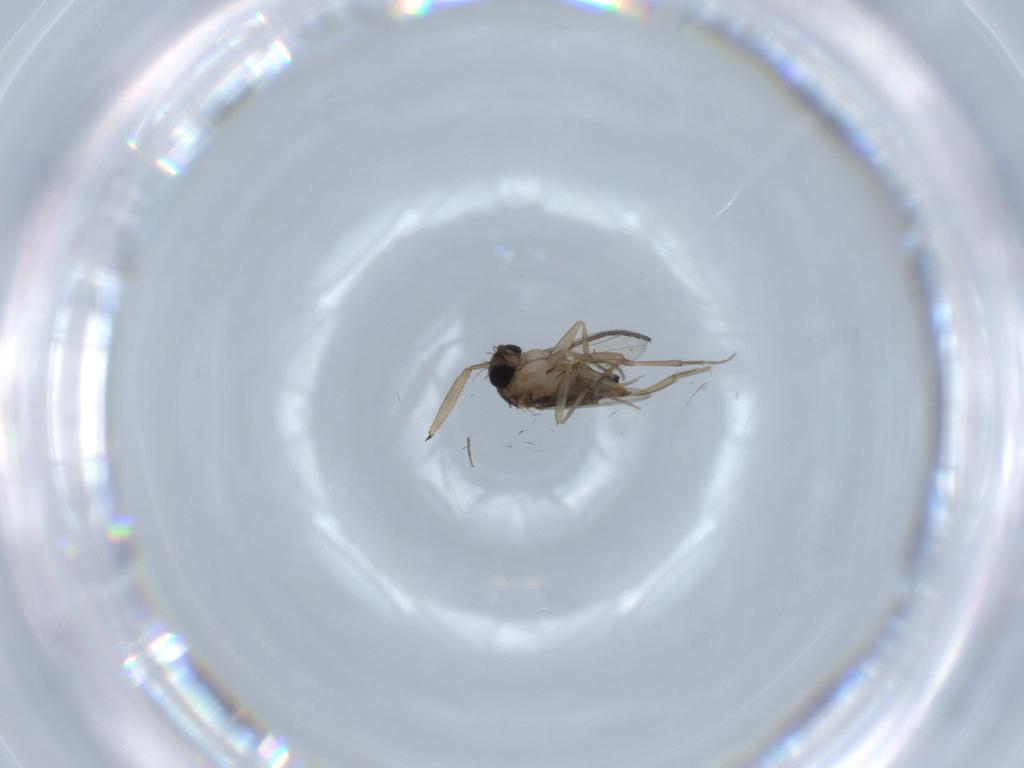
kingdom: Animalia
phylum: Arthropoda
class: Insecta
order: Diptera
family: Phoridae
